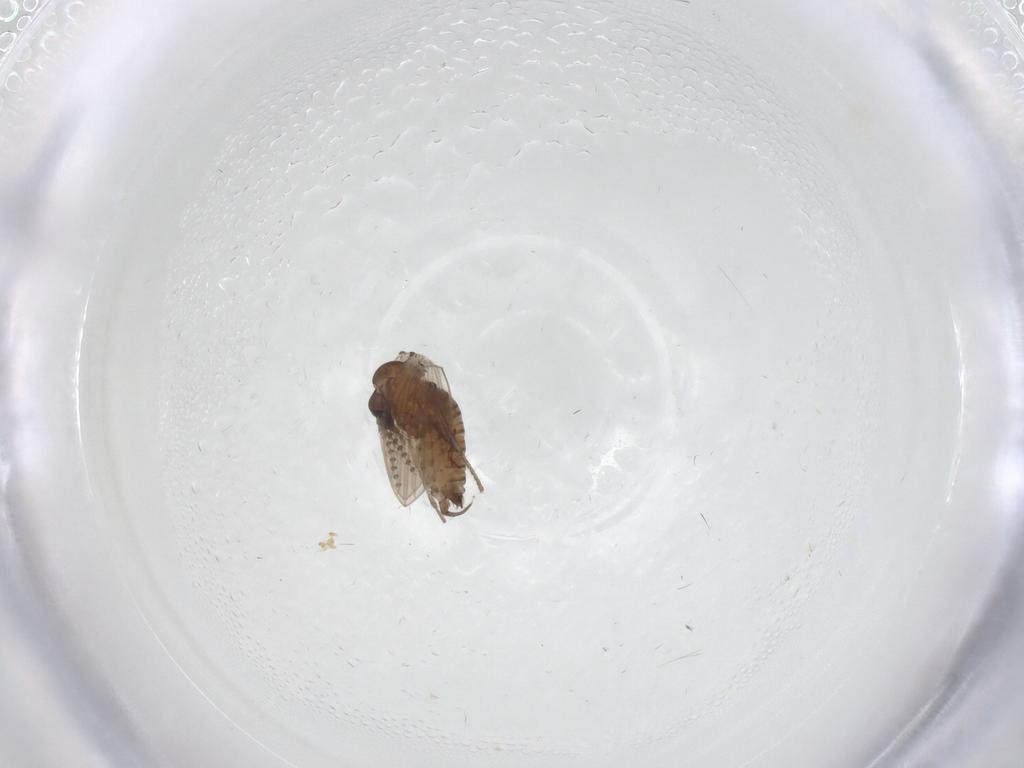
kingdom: Animalia
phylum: Arthropoda
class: Insecta
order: Diptera
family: Psychodidae
